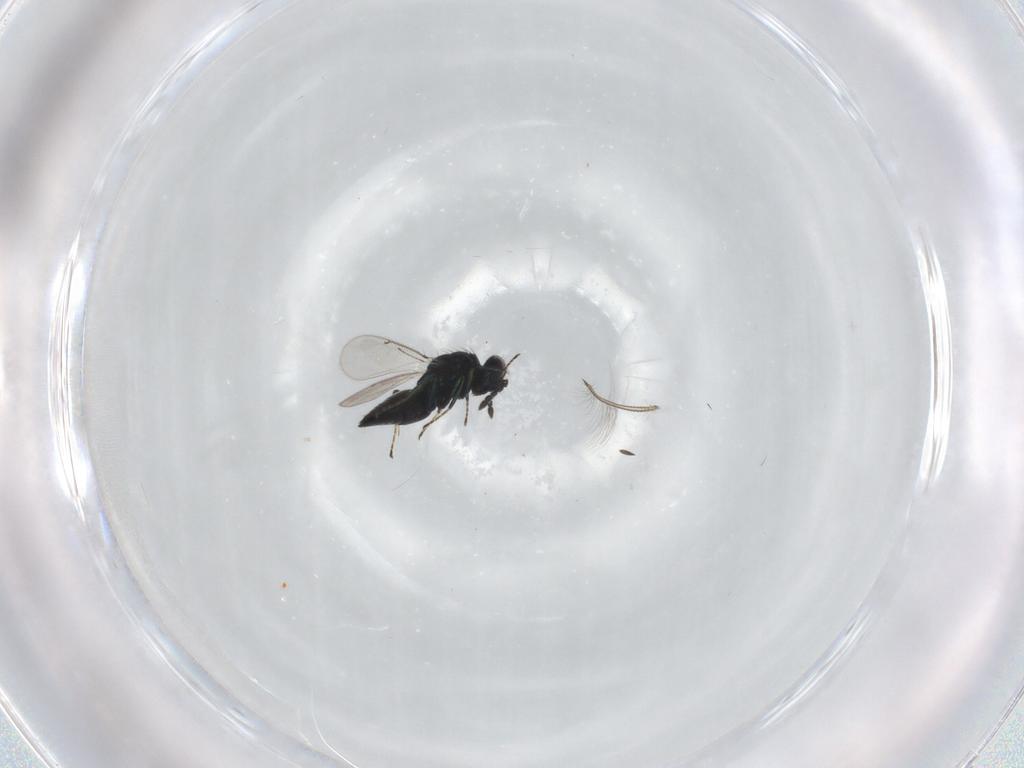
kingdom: Animalia
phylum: Arthropoda
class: Insecta
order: Hymenoptera
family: Eulophidae
